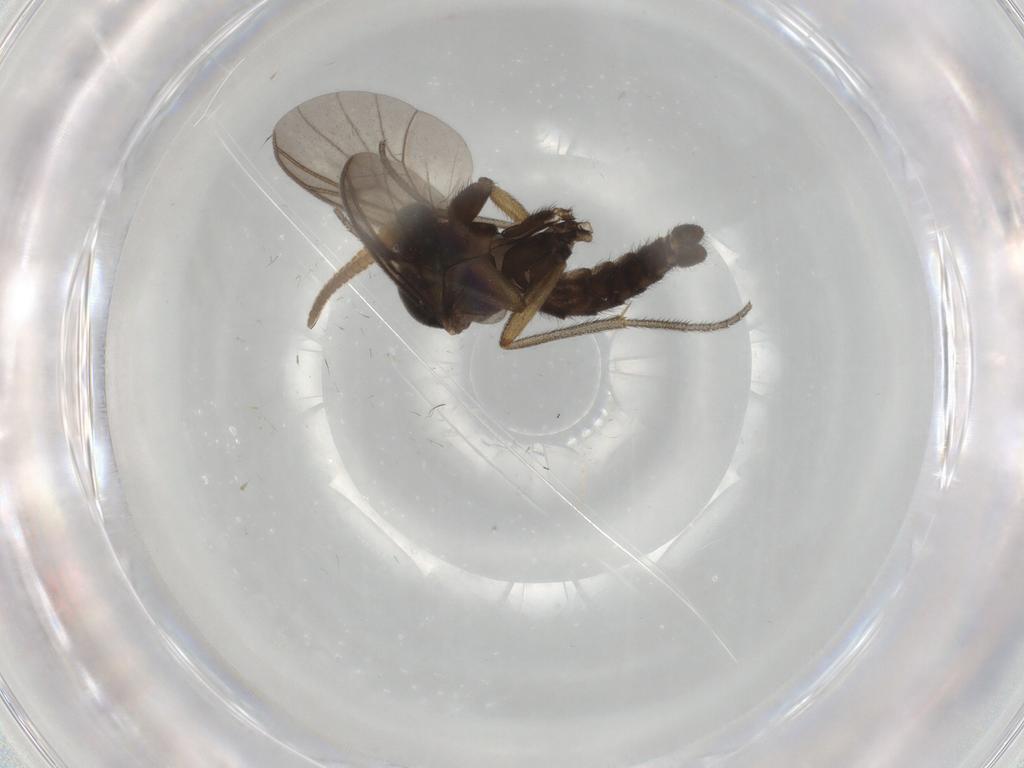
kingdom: Animalia
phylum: Arthropoda
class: Insecta
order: Diptera
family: Mycetophilidae
